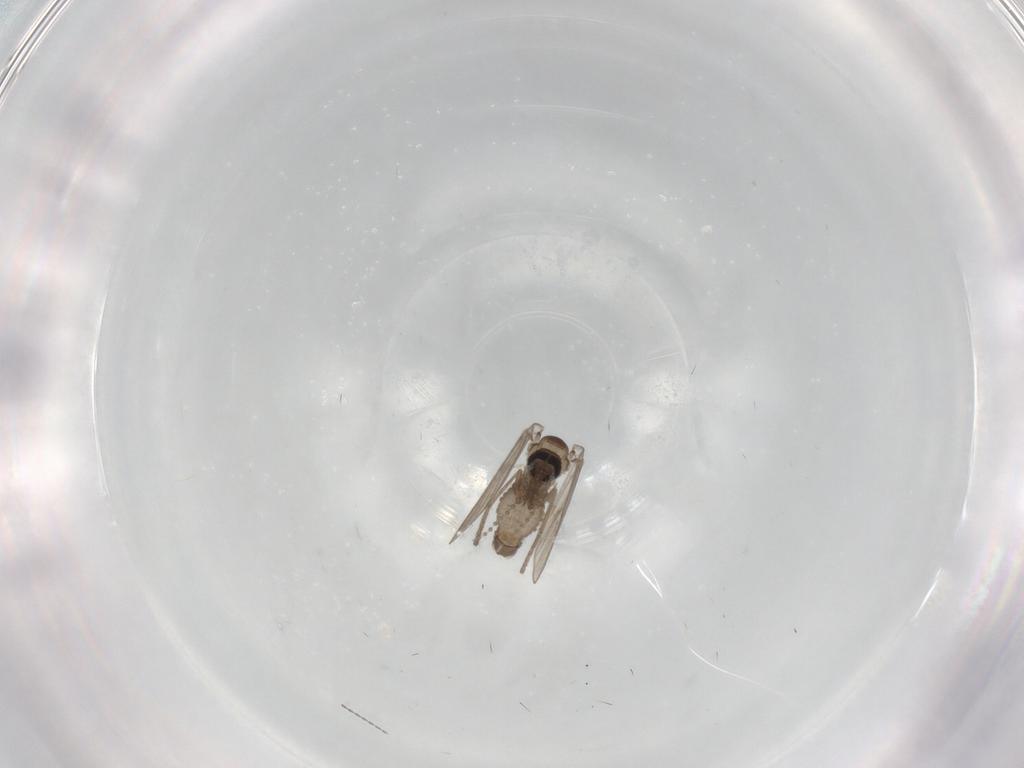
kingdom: Animalia
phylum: Arthropoda
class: Insecta
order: Diptera
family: Psychodidae
